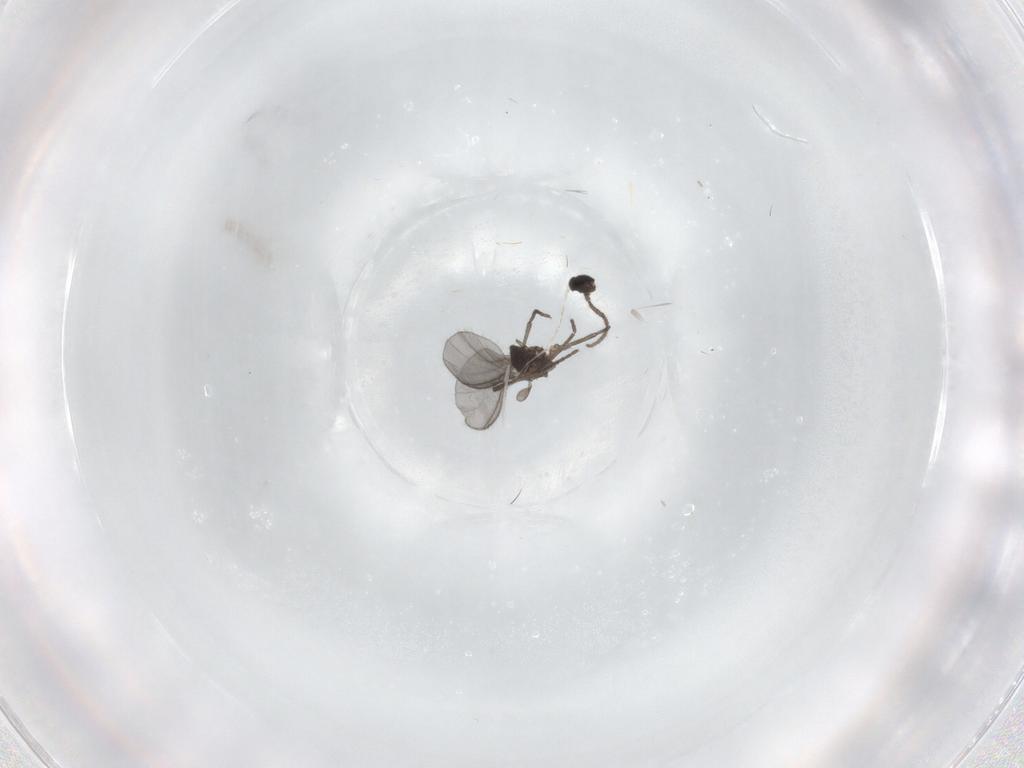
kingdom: Animalia
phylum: Arthropoda
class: Insecta
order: Diptera
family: Sciaridae
